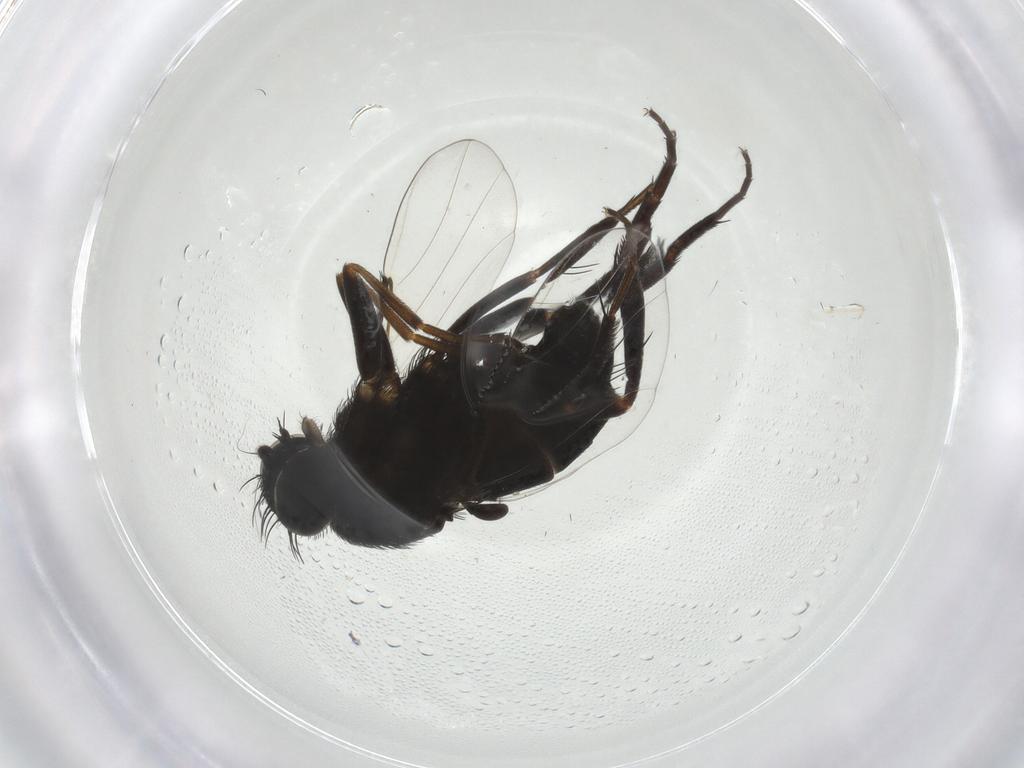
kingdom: Animalia
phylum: Arthropoda
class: Insecta
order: Diptera
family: Phoridae
